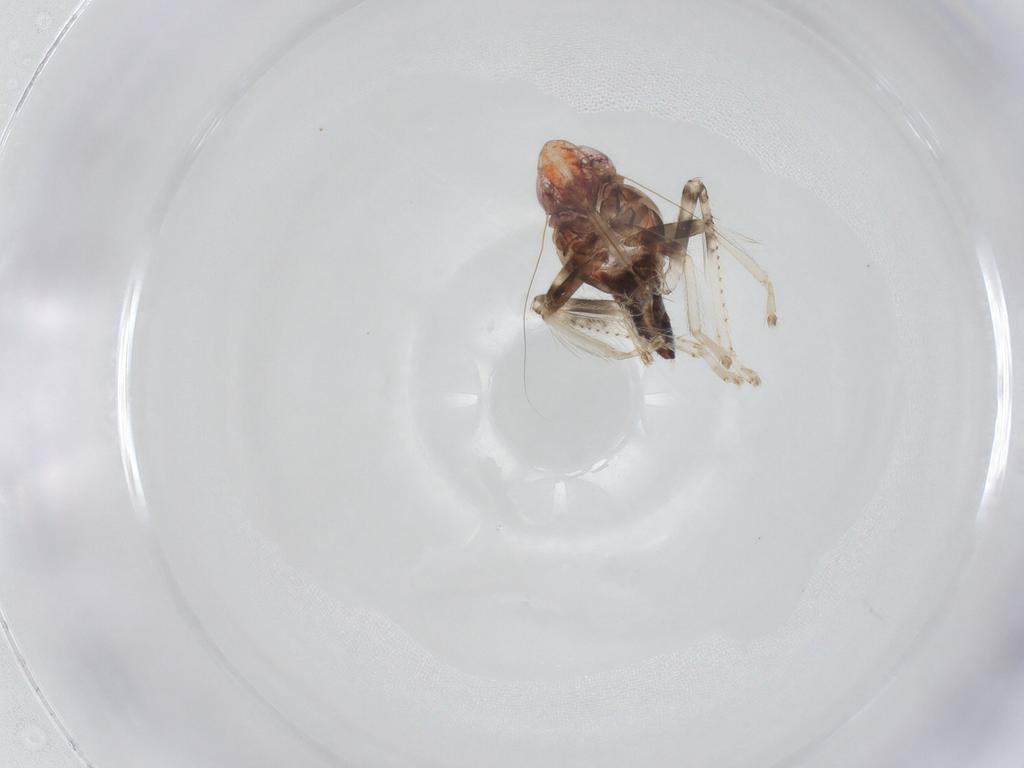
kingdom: Animalia
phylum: Arthropoda
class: Insecta
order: Hemiptera
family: Cicadellidae
